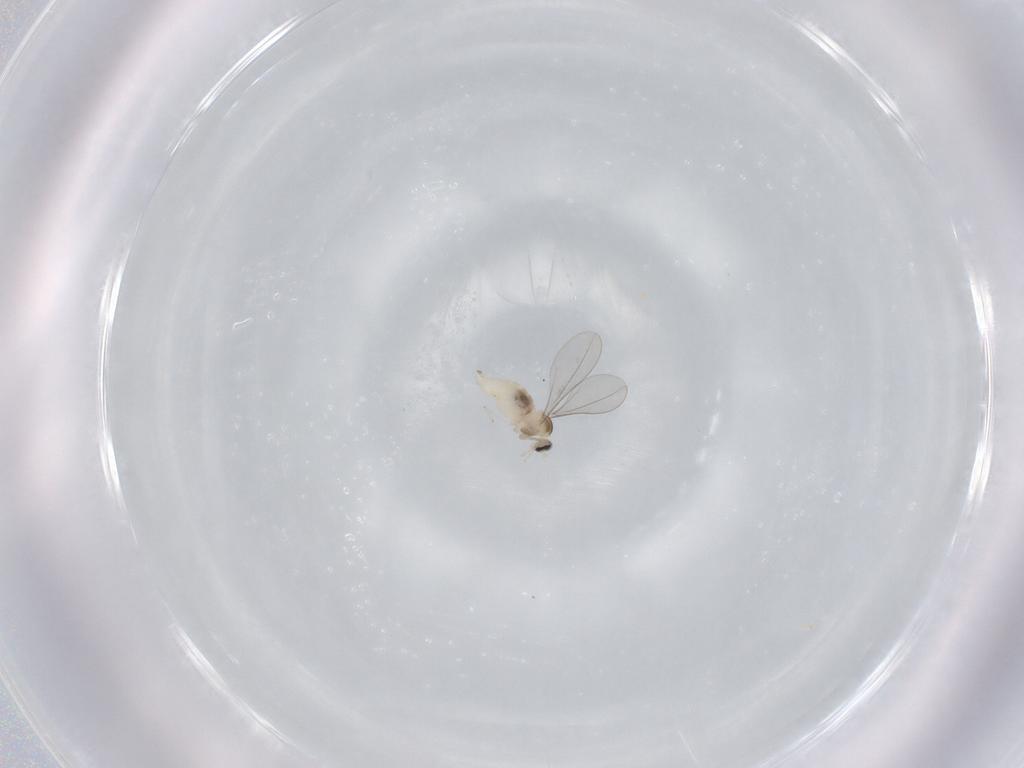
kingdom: Animalia
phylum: Arthropoda
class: Insecta
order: Diptera
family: Cecidomyiidae
